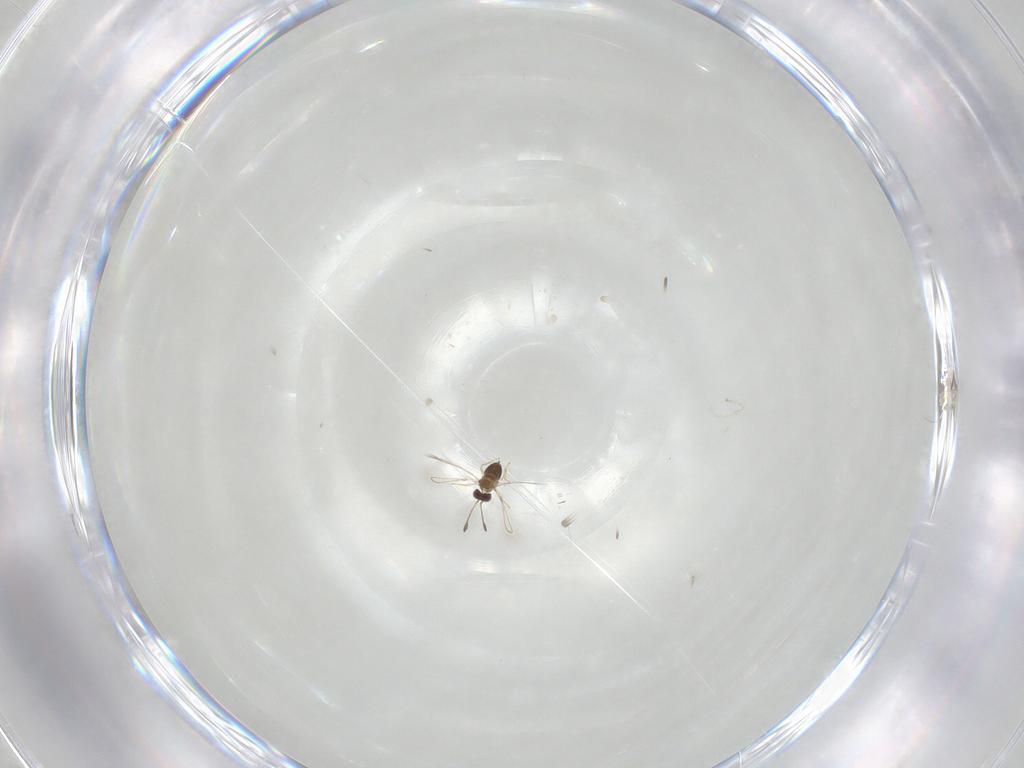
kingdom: Animalia
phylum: Arthropoda
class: Insecta
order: Hymenoptera
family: Mymaridae
